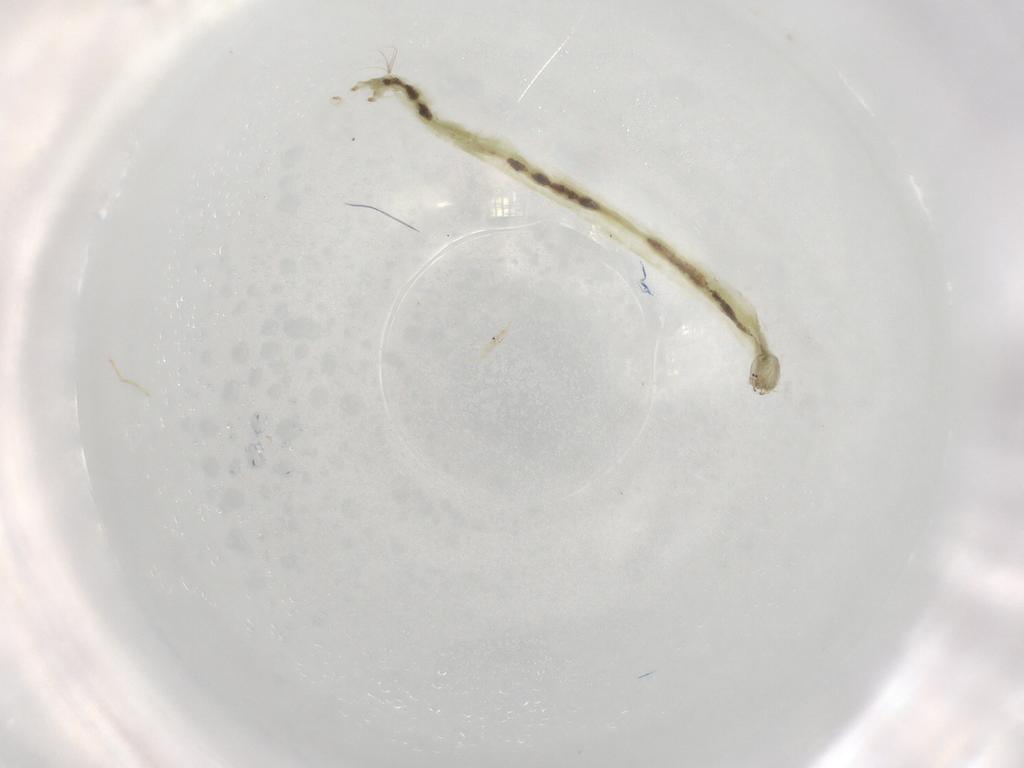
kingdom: Animalia
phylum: Arthropoda
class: Insecta
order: Diptera
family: Chironomidae
